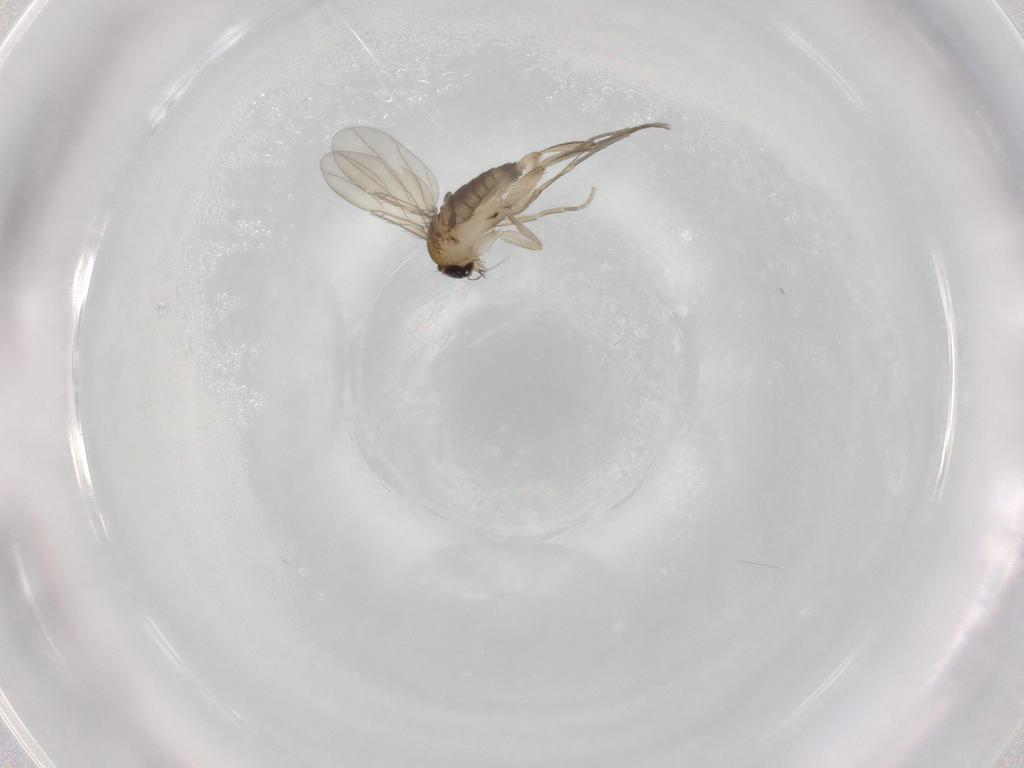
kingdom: Animalia
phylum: Arthropoda
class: Insecta
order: Diptera
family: Phoridae
